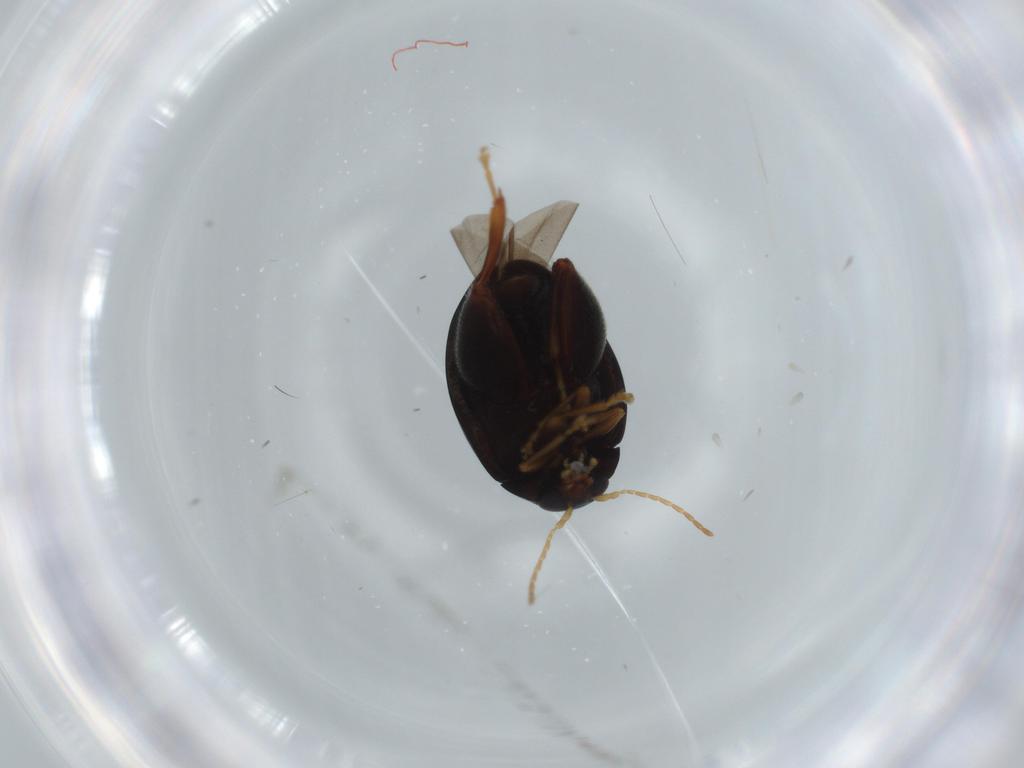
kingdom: Animalia
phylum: Arthropoda
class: Insecta
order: Coleoptera
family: Chrysomelidae
